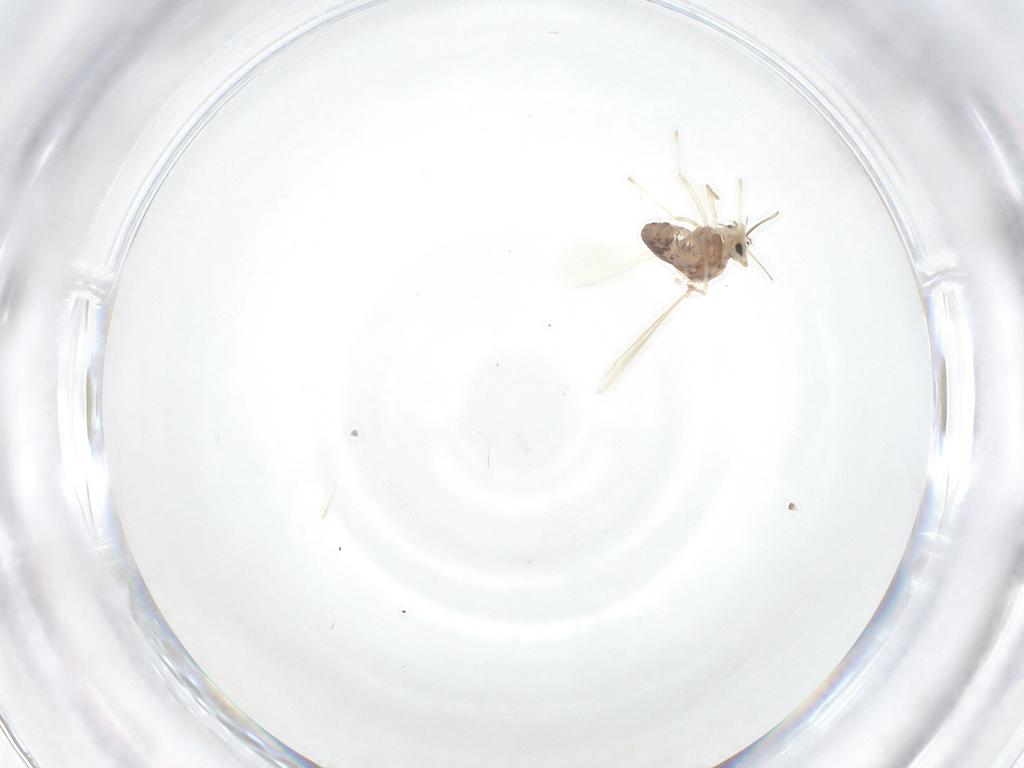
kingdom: Animalia
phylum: Arthropoda
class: Insecta
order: Diptera
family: Chironomidae
